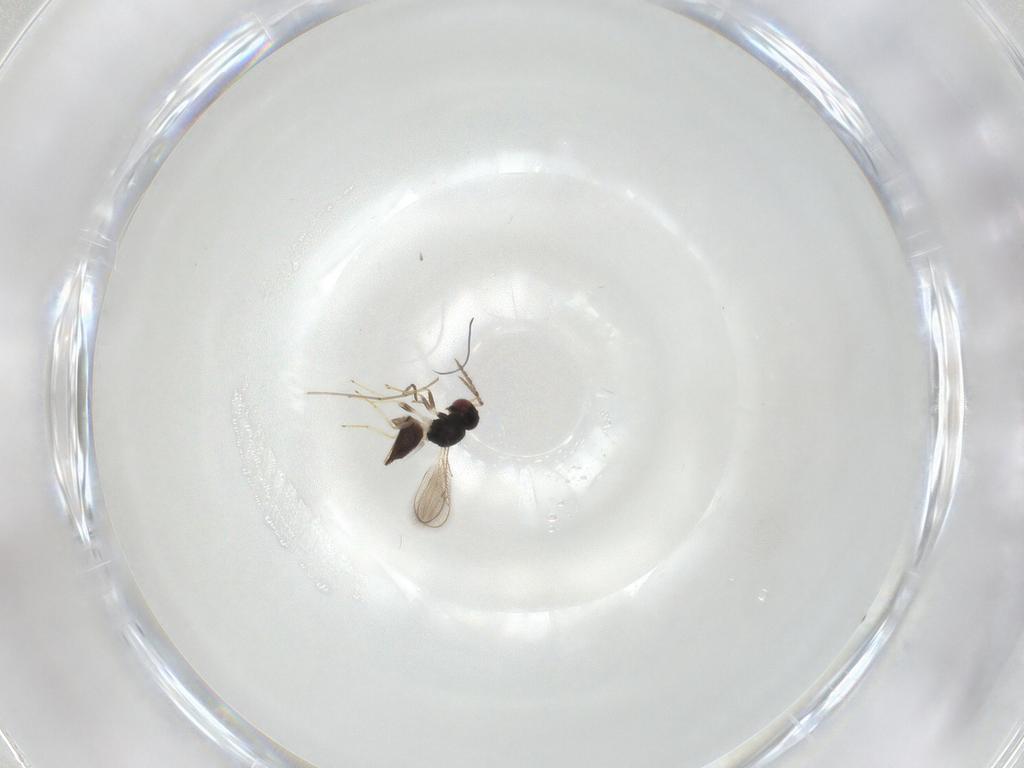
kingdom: Animalia
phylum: Arthropoda
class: Insecta
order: Hymenoptera
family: Eulophidae
